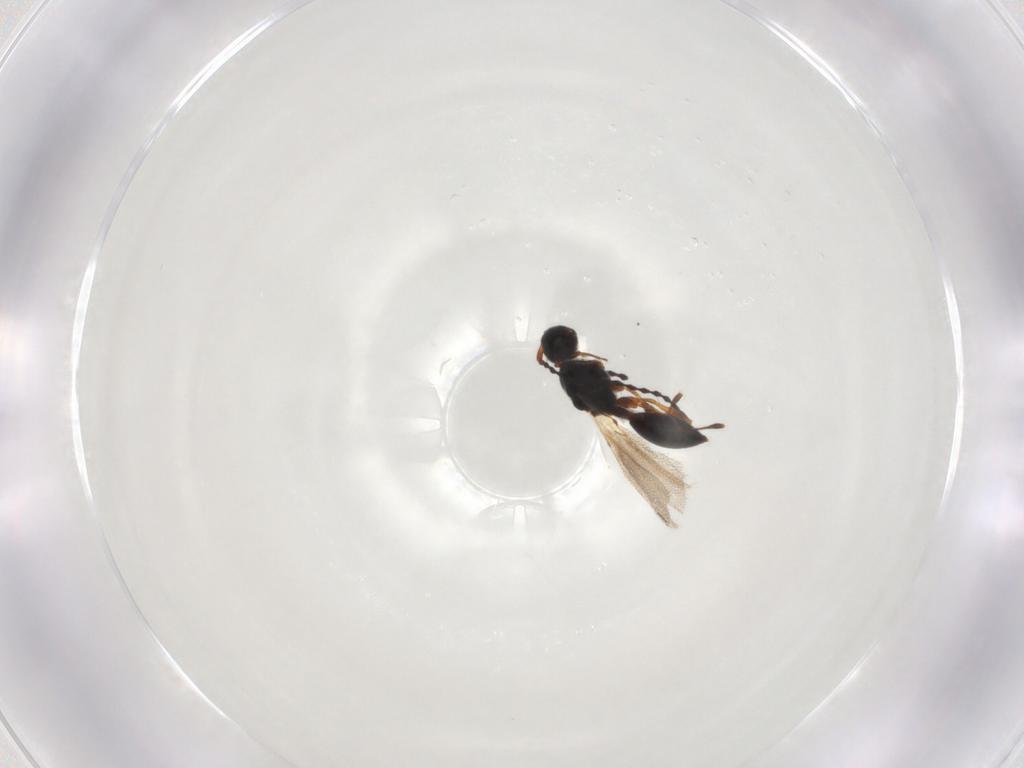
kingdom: Animalia
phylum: Arthropoda
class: Insecta
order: Hymenoptera
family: Diapriidae
